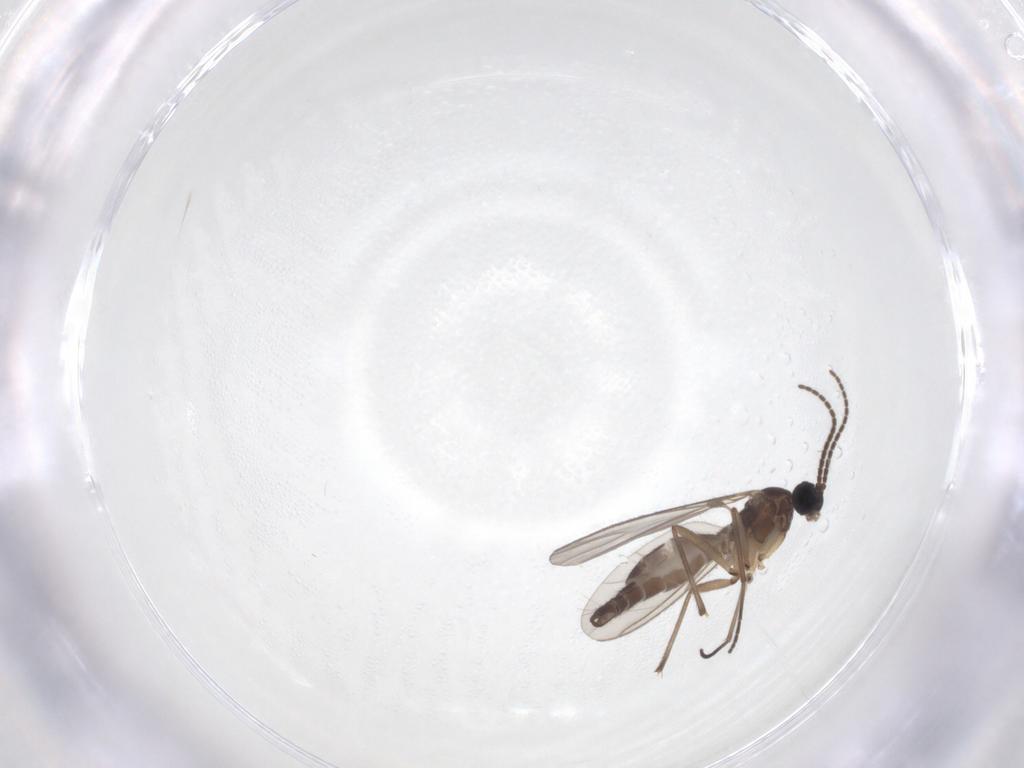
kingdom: Animalia
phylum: Arthropoda
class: Insecta
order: Diptera
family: Sciaridae
